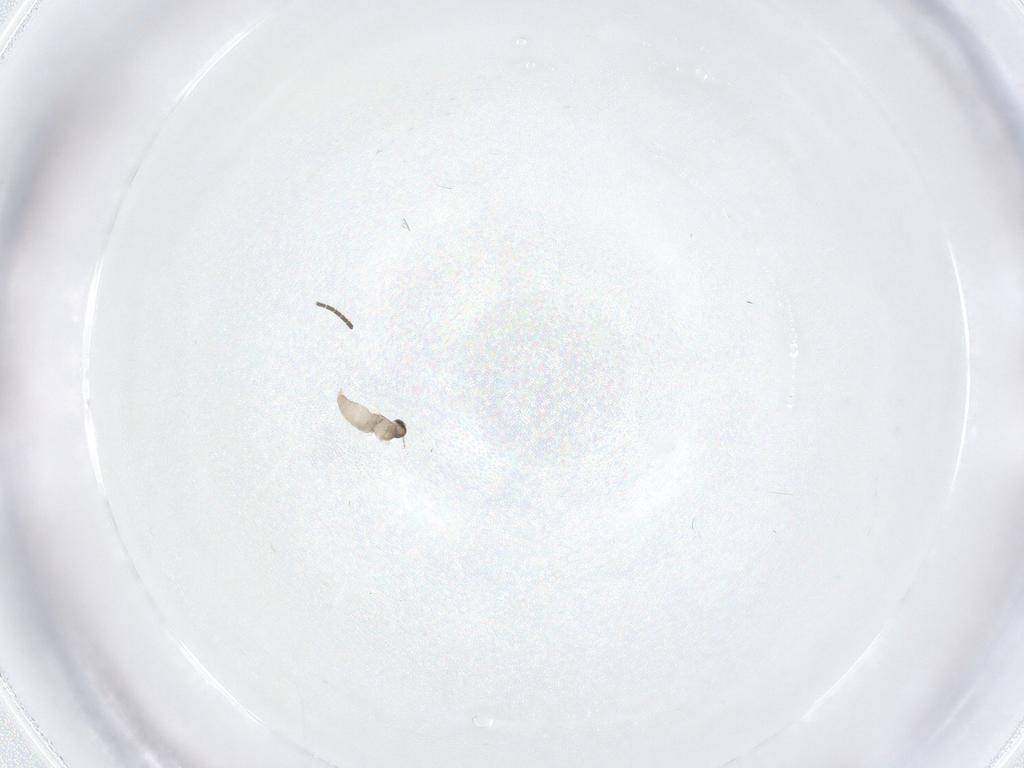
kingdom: Animalia
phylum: Arthropoda
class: Insecta
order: Diptera
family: Sciaridae
